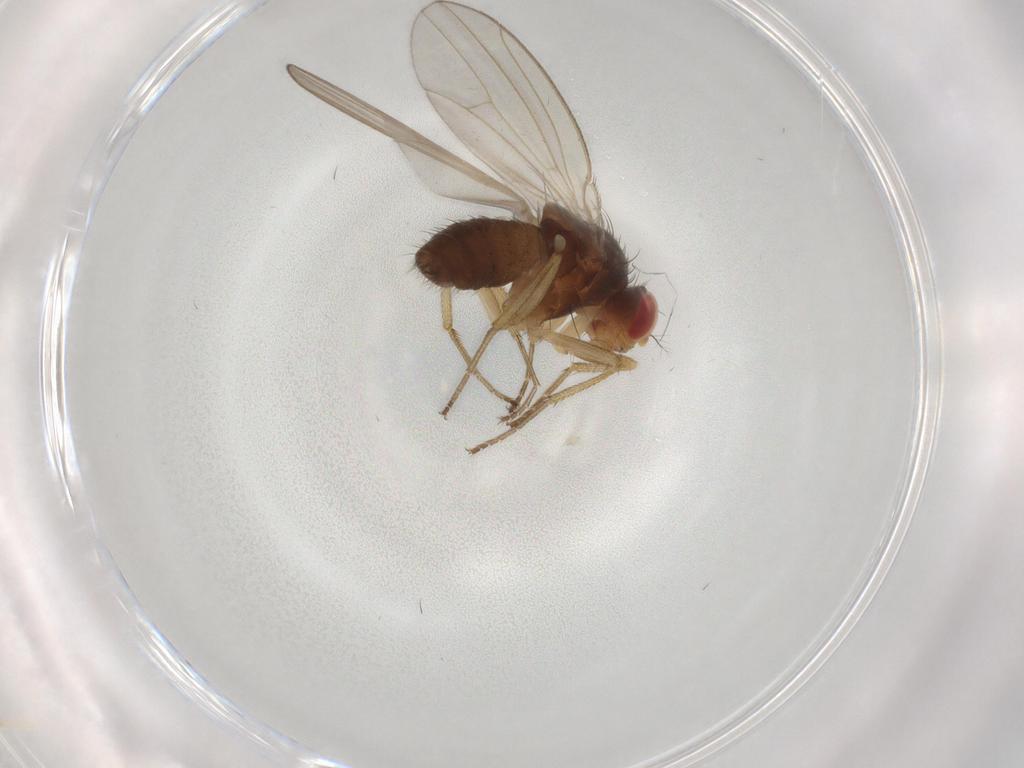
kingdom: Animalia
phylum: Arthropoda
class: Insecta
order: Diptera
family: Drosophilidae
